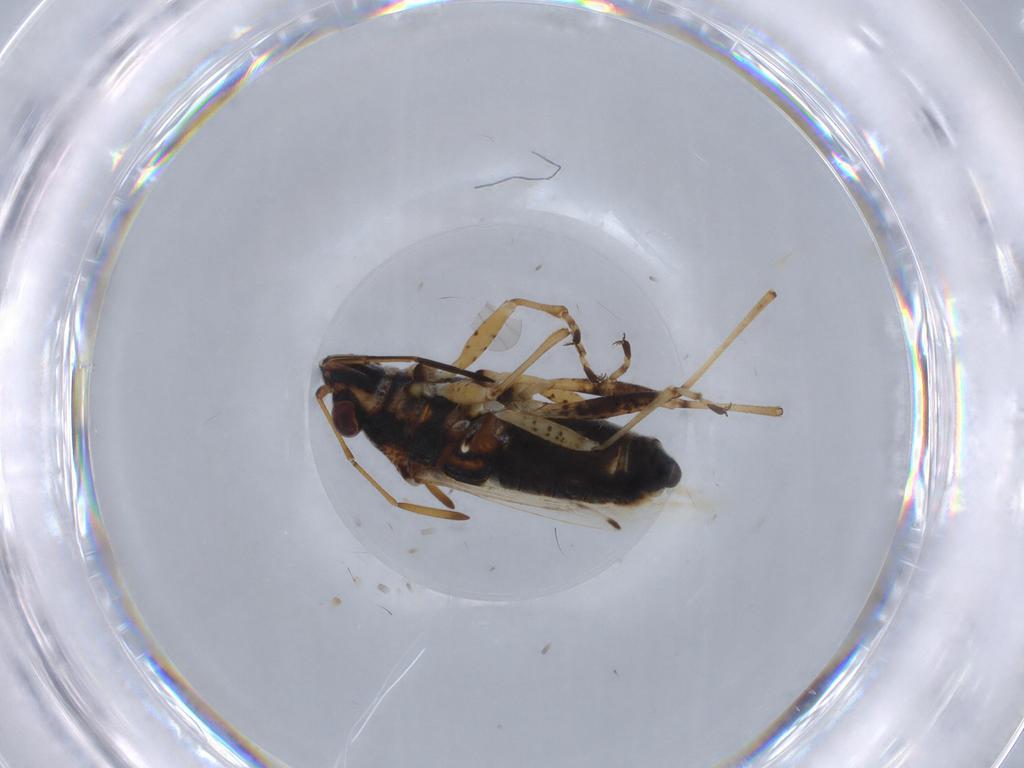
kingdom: Animalia
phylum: Arthropoda
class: Insecta
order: Hemiptera
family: Lygaeidae
